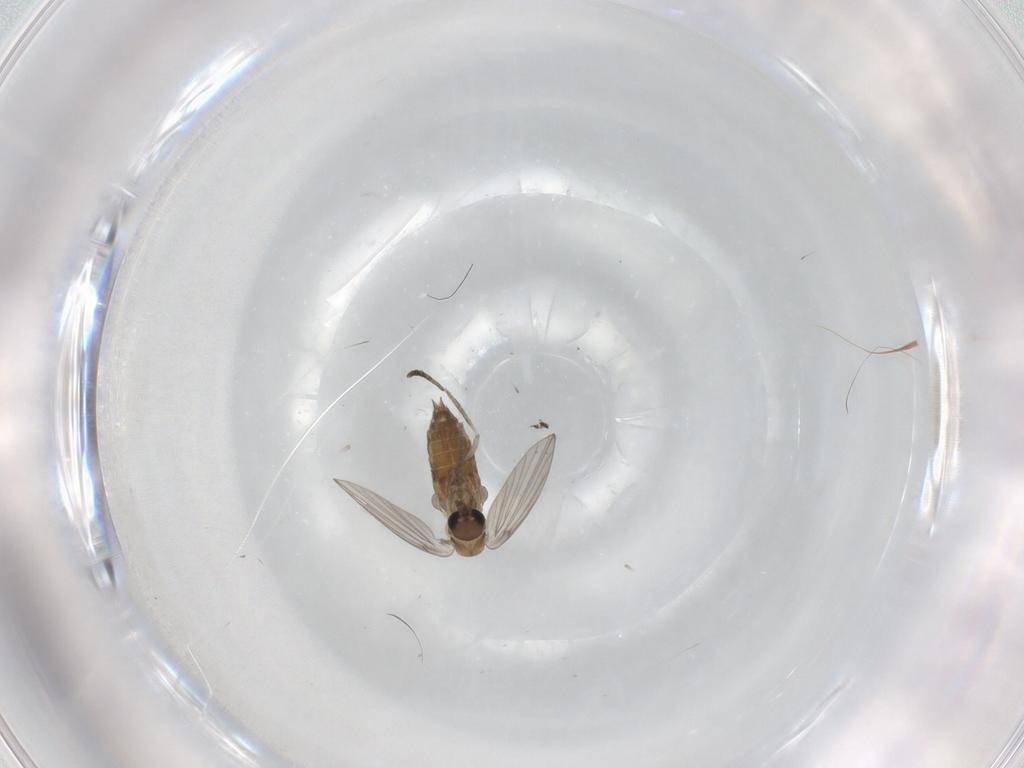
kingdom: Animalia
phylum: Arthropoda
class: Insecta
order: Diptera
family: Psychodidae
